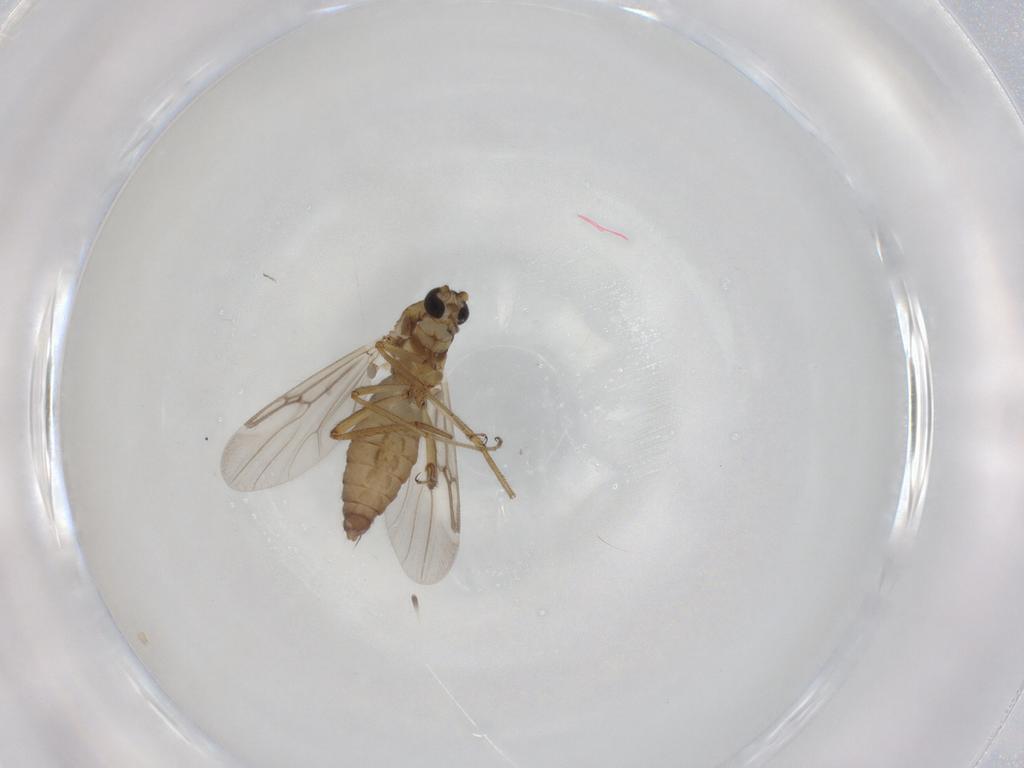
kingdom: Animalia
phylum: Arthropoda
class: Insecta
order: Diptera
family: Ceratopogonidae
